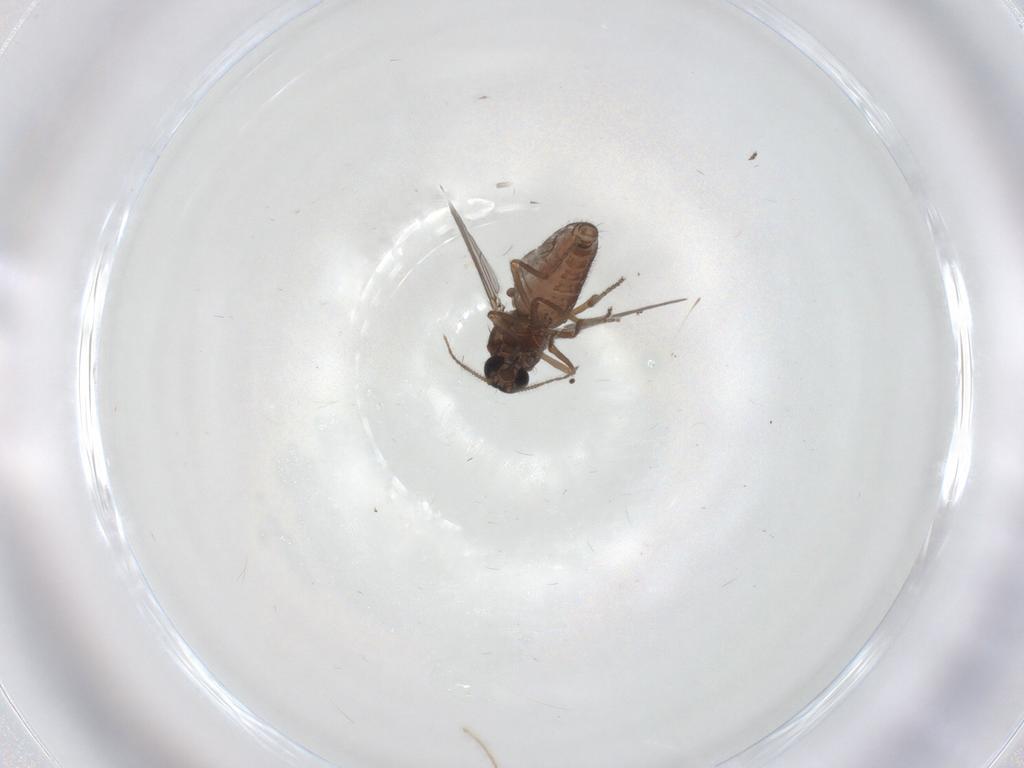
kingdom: Animalia
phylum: Arthropoda
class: Insecta
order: Diptera
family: Ceratopogonidae
